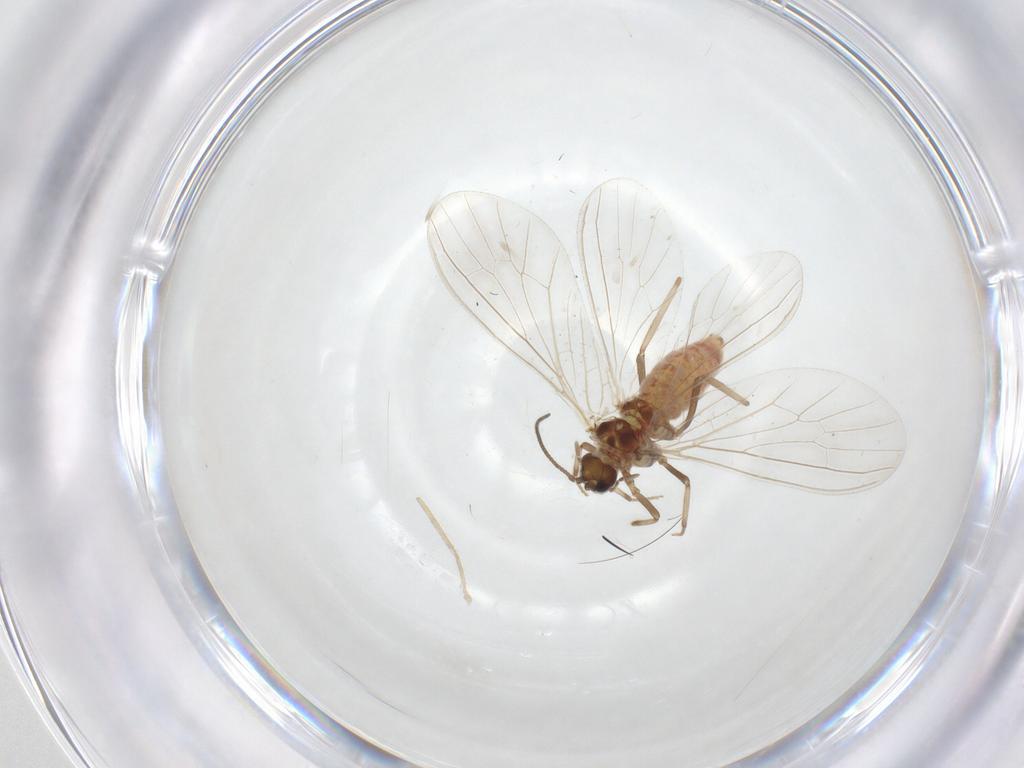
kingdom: Animalia
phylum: Arthropoda
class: Insecta
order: Neuroptera
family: Coniopterygidae
